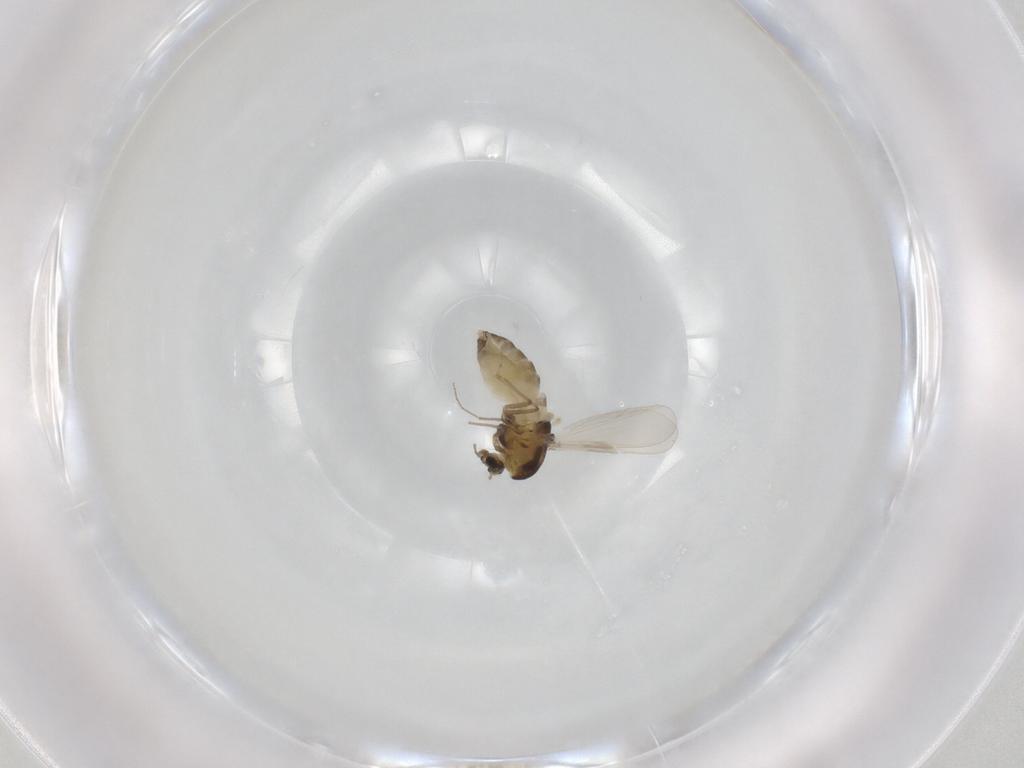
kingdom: Animalia
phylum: Arthropoda
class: Insecta
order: Diptera
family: Chironomidae
